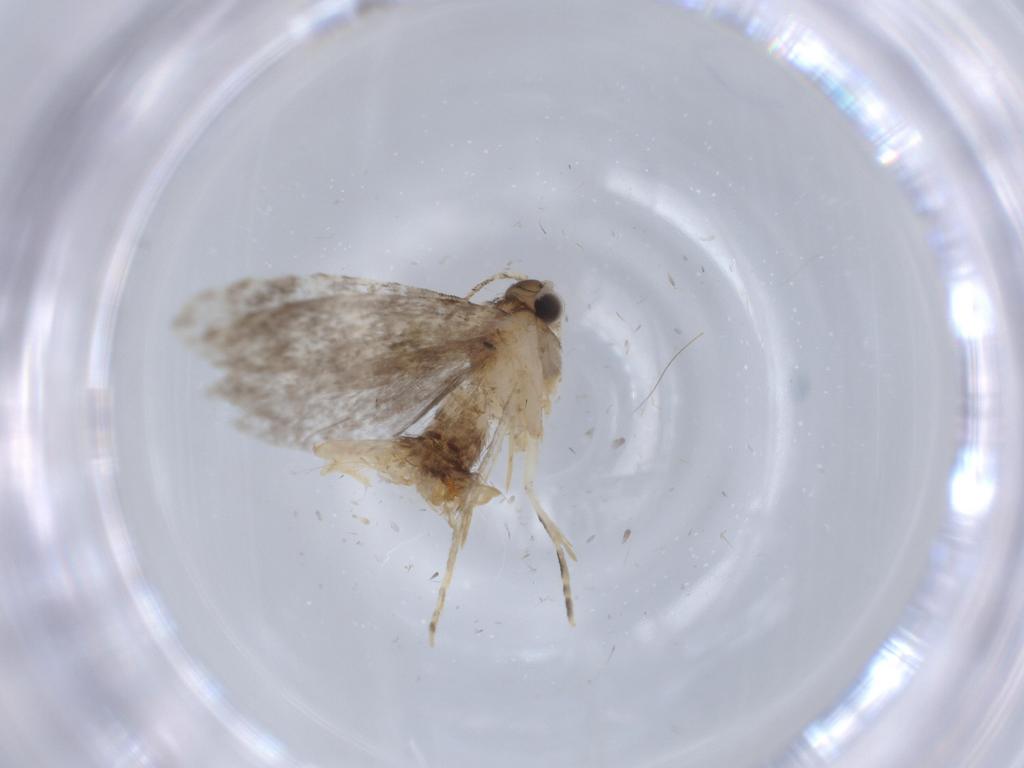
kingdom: Animalia
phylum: Arthropoda
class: Insecta
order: Lepidoptera
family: Tineidae
